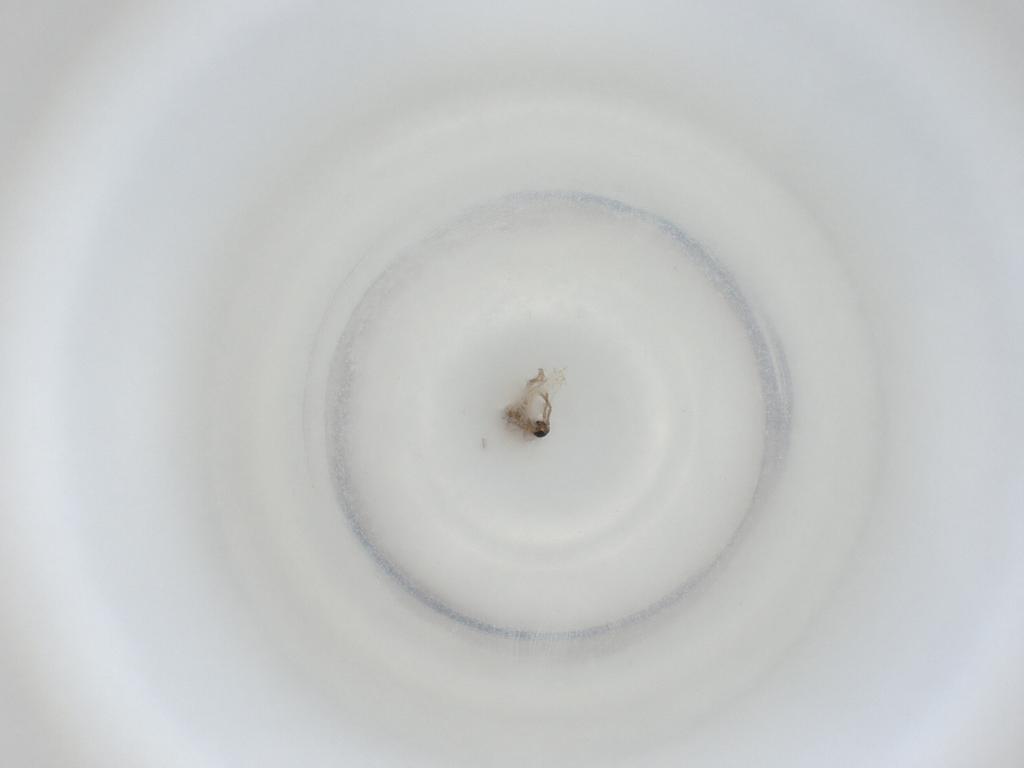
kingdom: Animalia
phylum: Arthropoda
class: Insecta
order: Diptera
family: Cecidomyiidae
